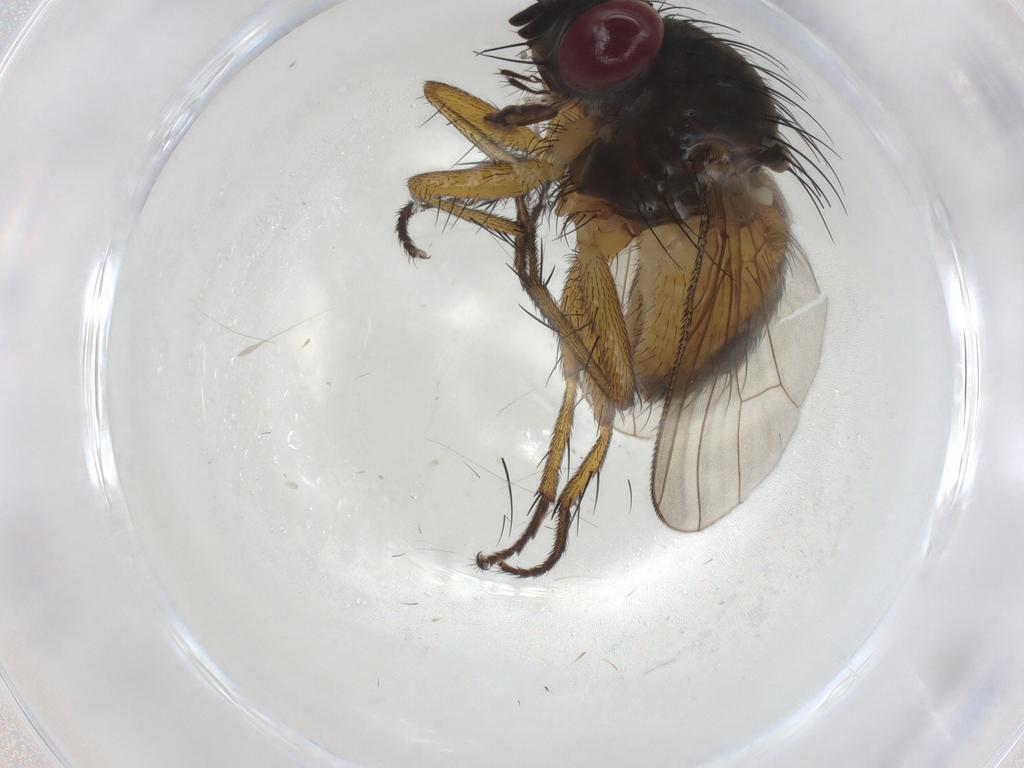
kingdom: Animalia
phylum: Arthropoda
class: Insecta
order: Diptera
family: Muscidae
